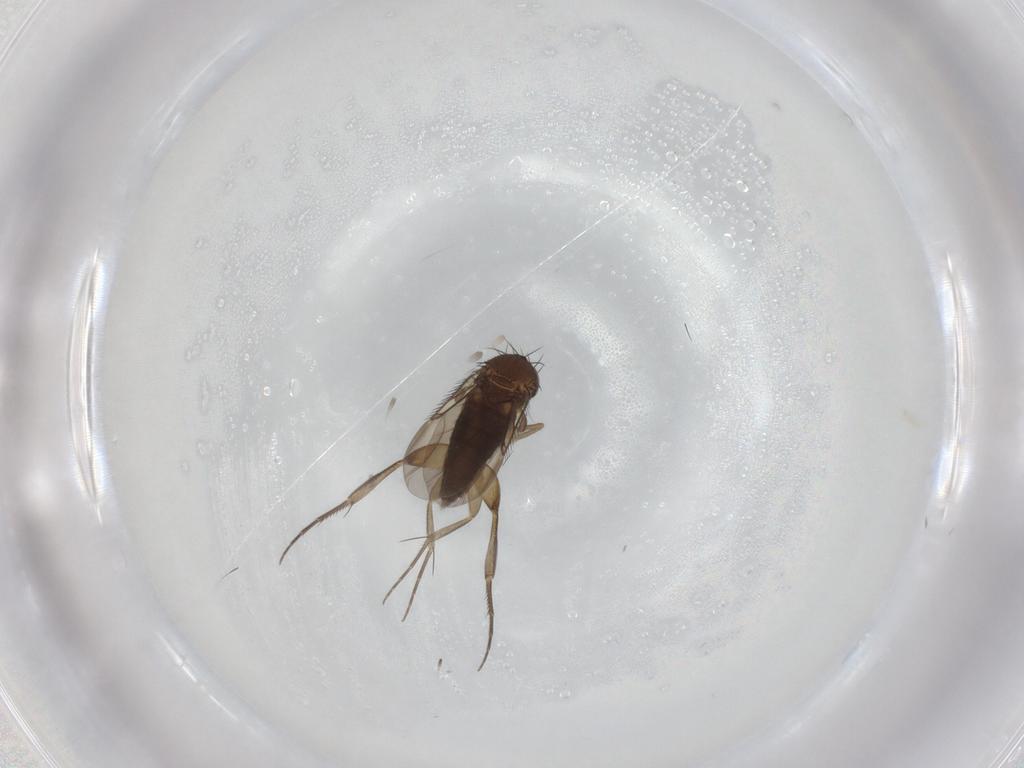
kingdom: Animalia
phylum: Arthropoda
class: Insecta
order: Diptera
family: Phoridae
